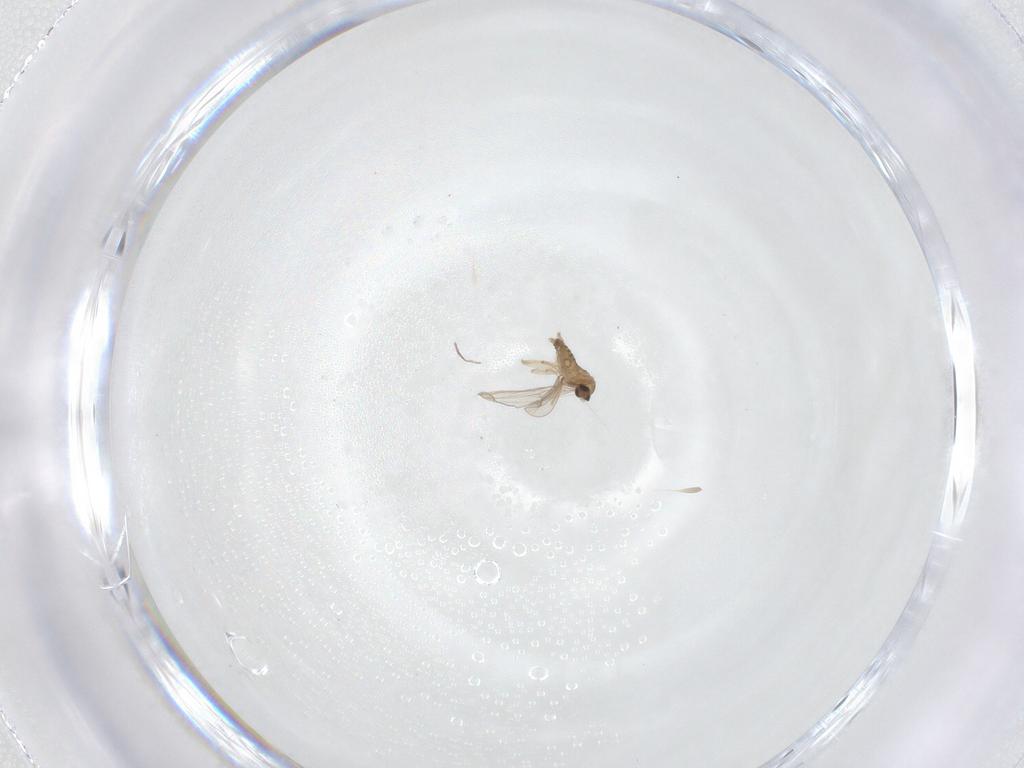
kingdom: Animalia
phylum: Arthropoda
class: Insecta
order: Diptera
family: Cecidomyiidae
